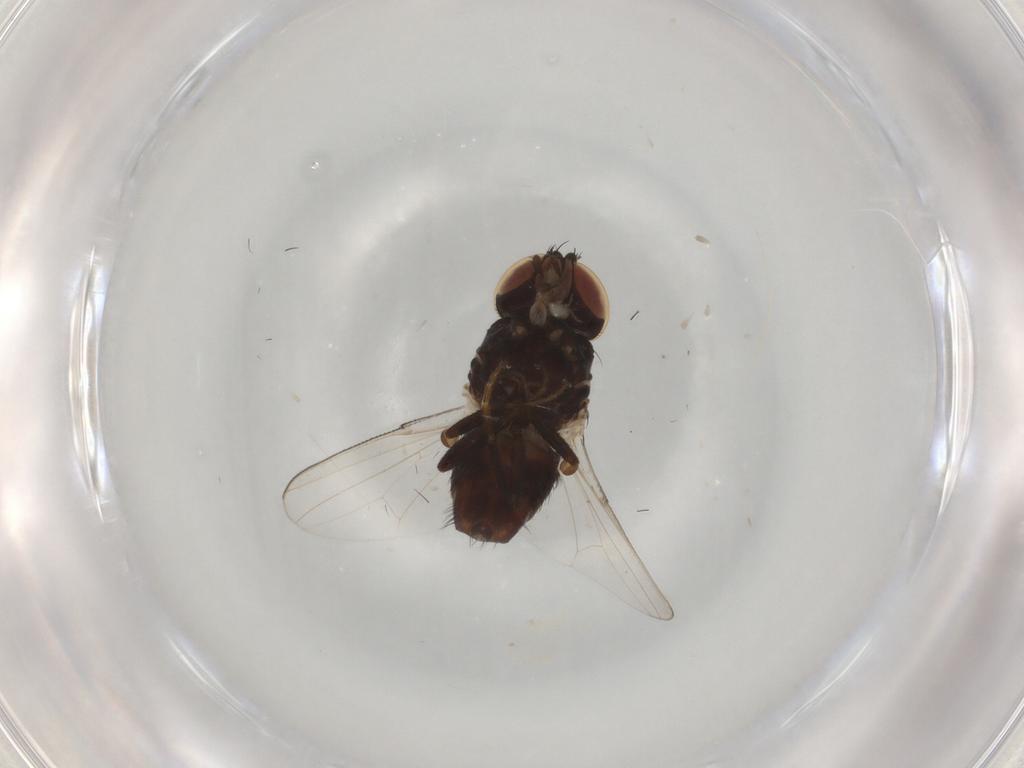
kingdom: Animalia
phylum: Arthropoda
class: Insecta
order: Diptera
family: Milichiidae
